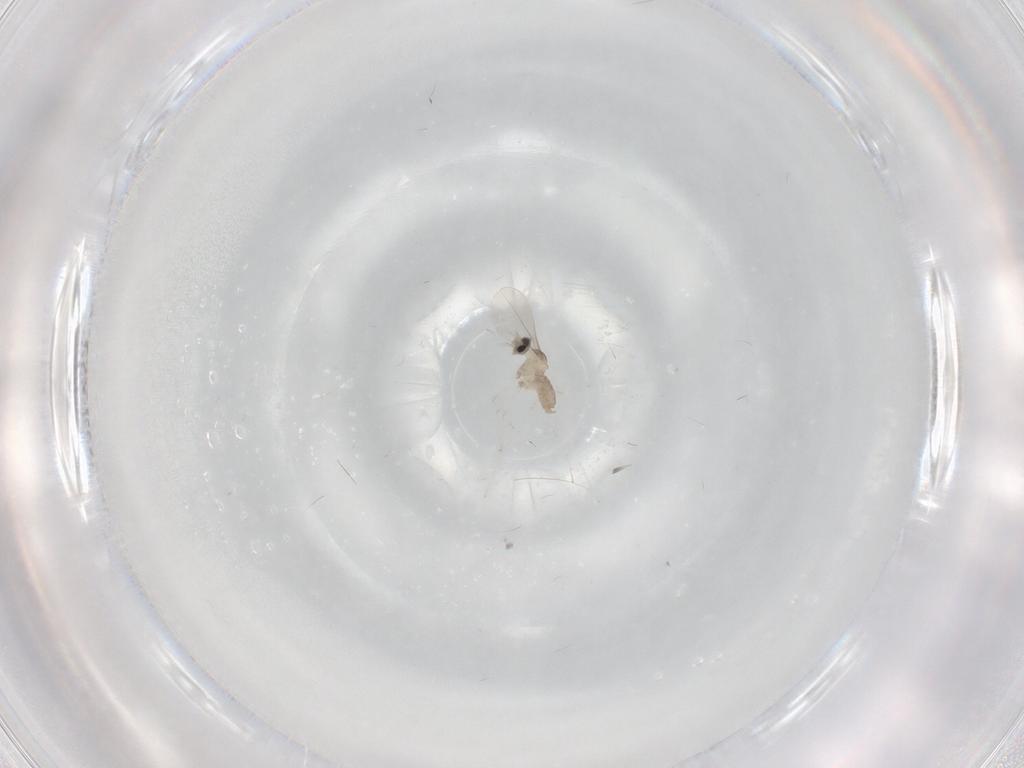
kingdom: Animalia
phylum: Arthropoda
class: Insecta
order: Diptera
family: Cecidomyiidae
